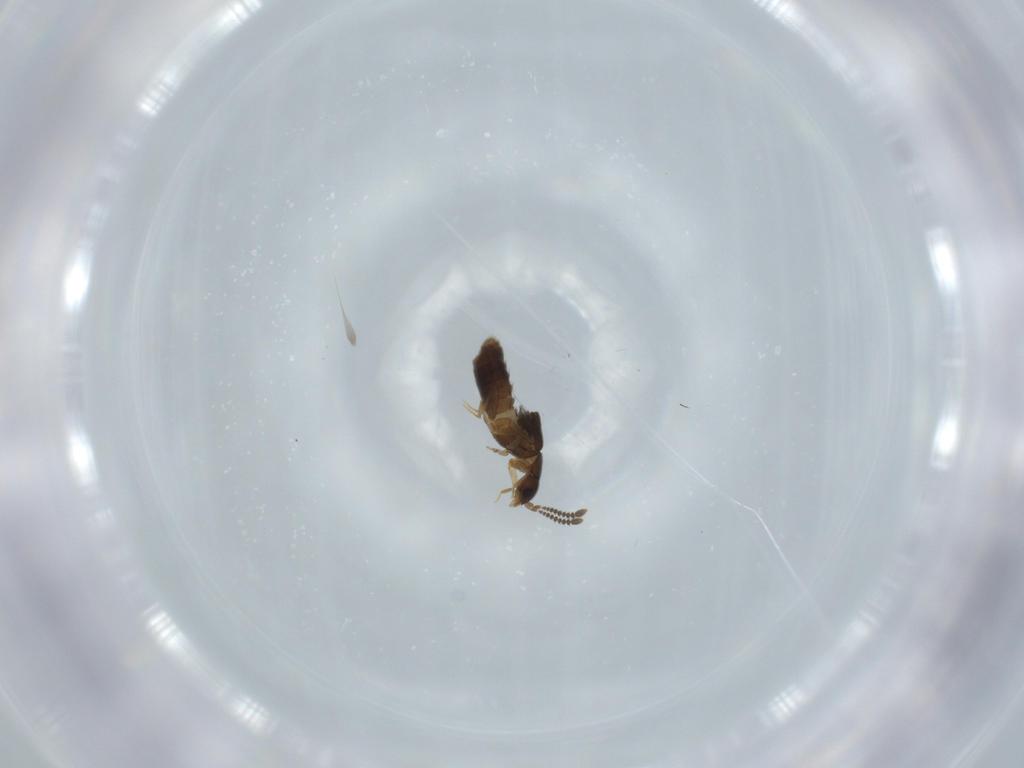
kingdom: Animalia
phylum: Arthropoda
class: Insecta
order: Coleoptera
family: Staphylinidae
